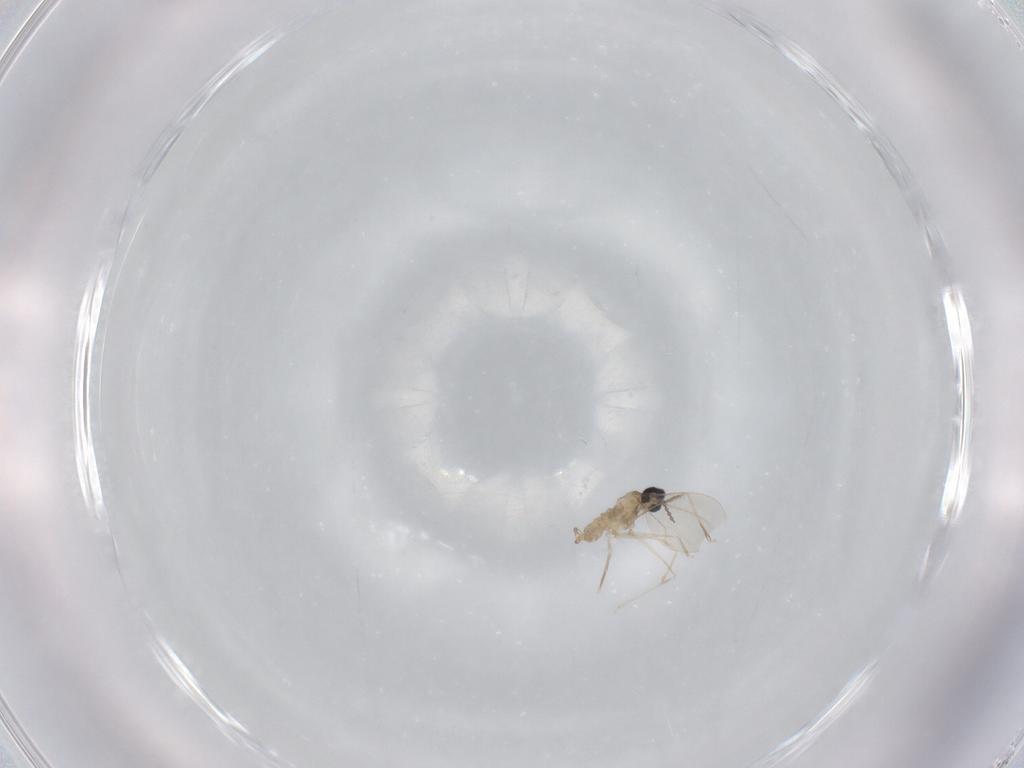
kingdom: Animalia
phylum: Arthropoda
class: Insecta
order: Diptera
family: Cecidomyiidae
